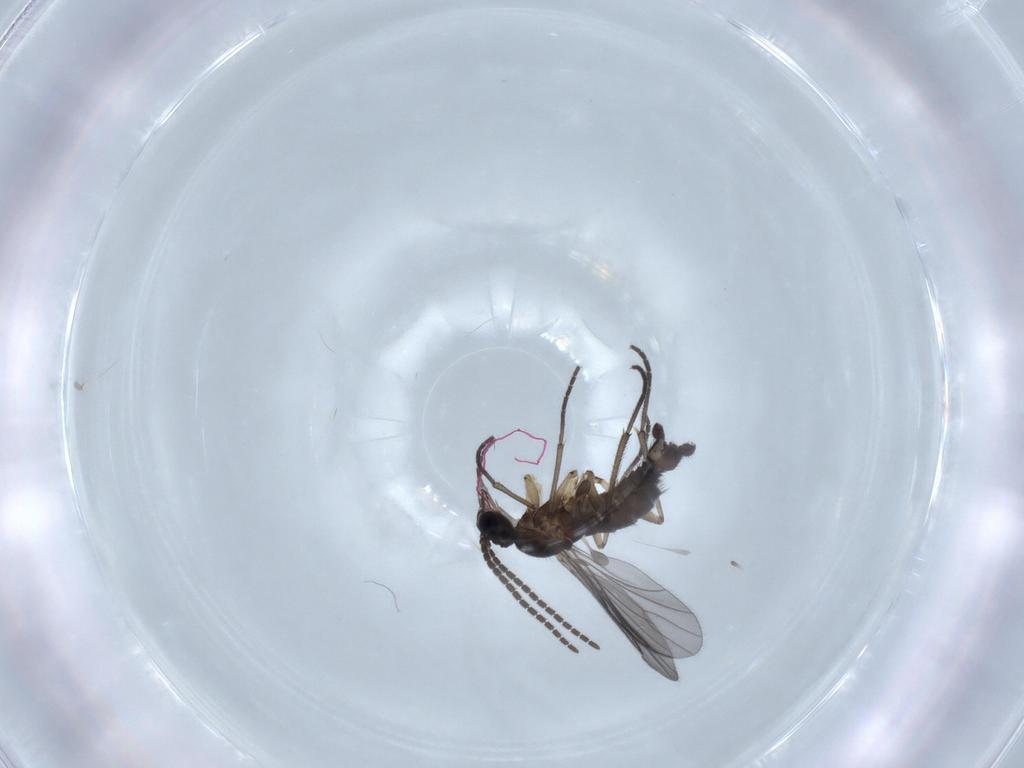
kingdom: Animalia
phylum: Arthropoda
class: Insecta
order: Diptera
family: Sciaridae
